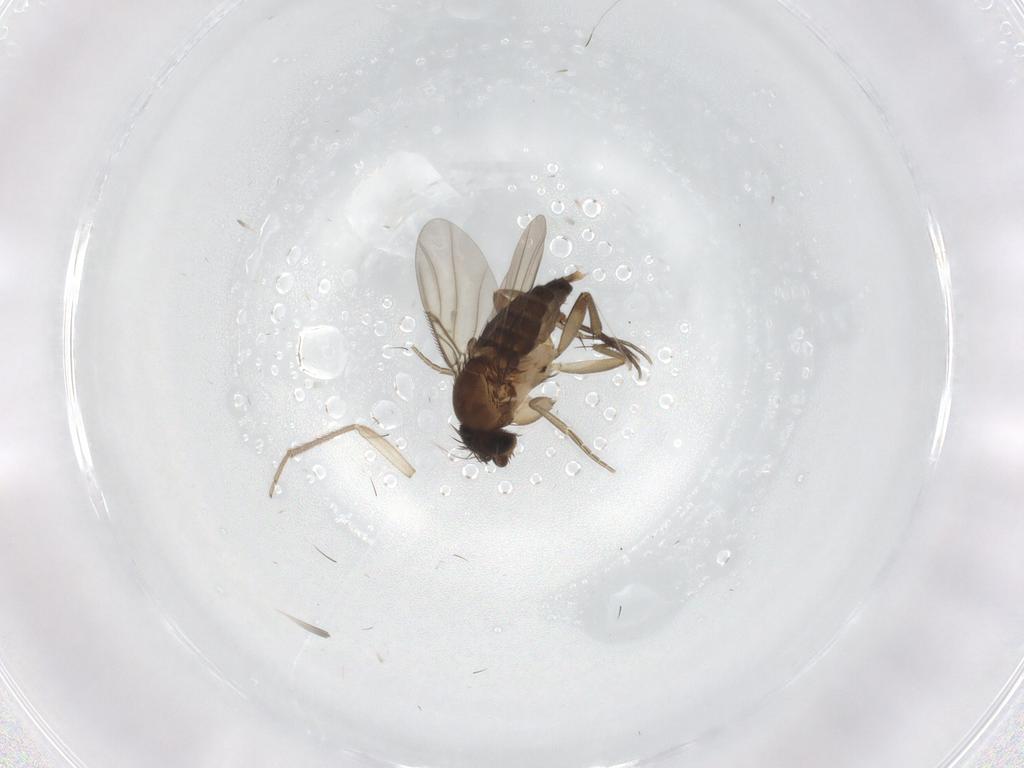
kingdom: Animalia
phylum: Arthropoda
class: Insecta
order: Diptera
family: Phoridae
